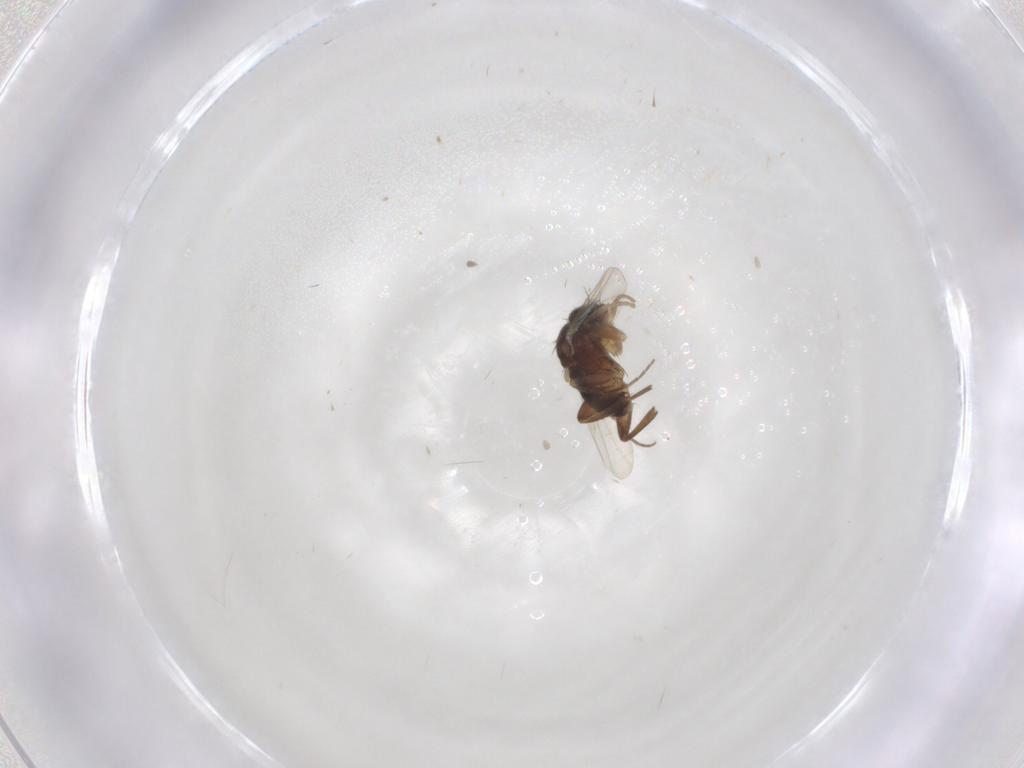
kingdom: Animalia
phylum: Arthropoda
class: Insecta
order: Diptera
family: Phoridae
